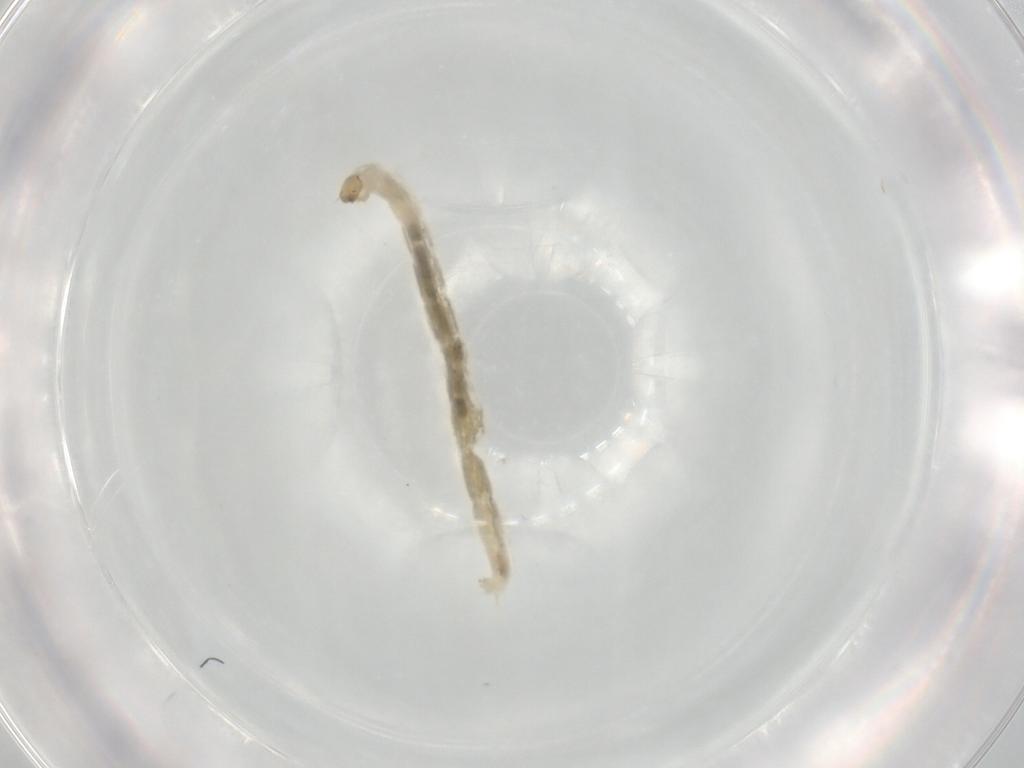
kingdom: Animalia
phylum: Arthropoda
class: Insecta
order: Diptera
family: Chironomidae
